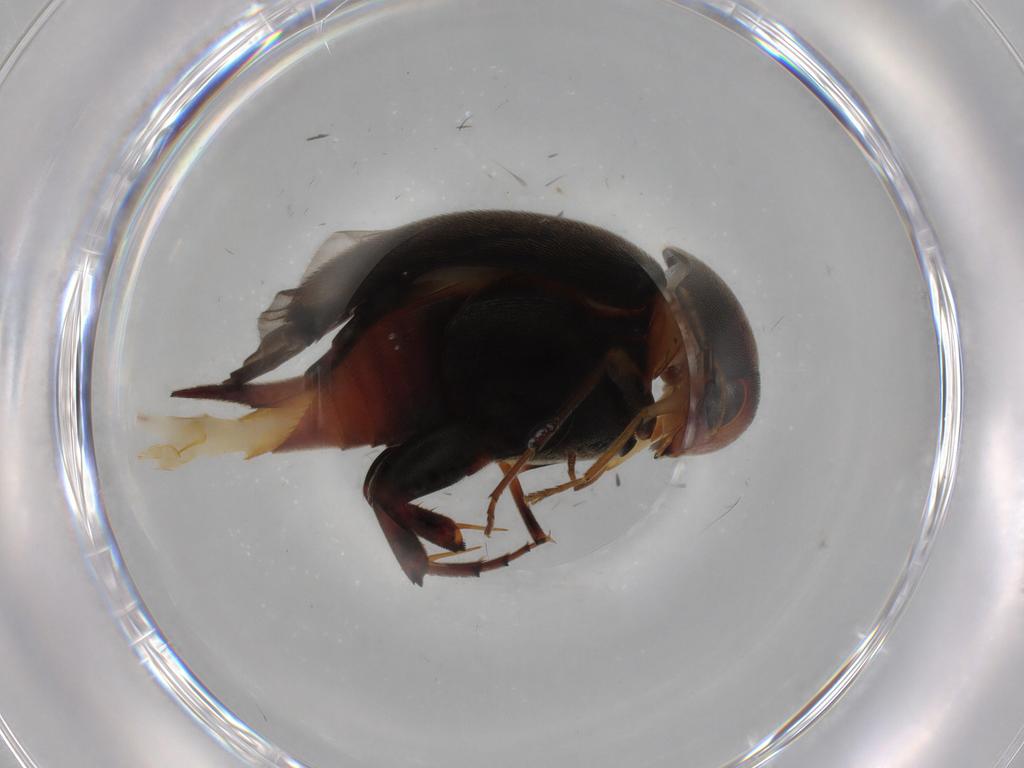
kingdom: Animalia
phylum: Arthropoda
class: Insecta
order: Coleoptera
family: Mordellidae
